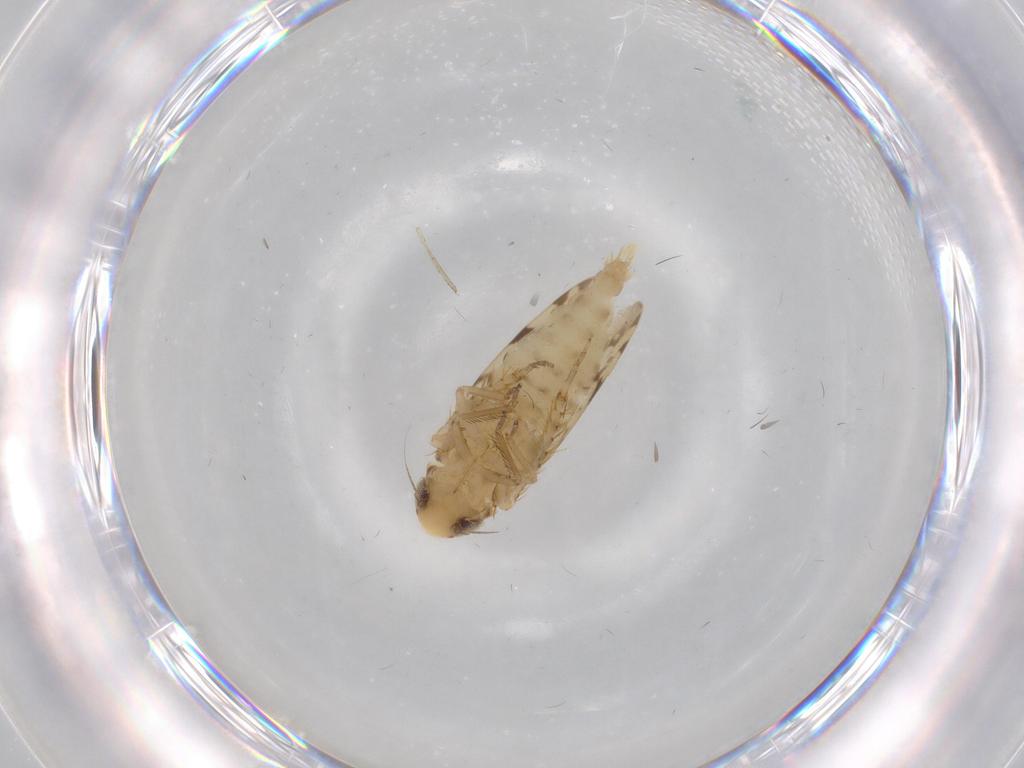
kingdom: Animalia
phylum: Arthropoda
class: Insecta
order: Hemiptera
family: Cicadellidae
